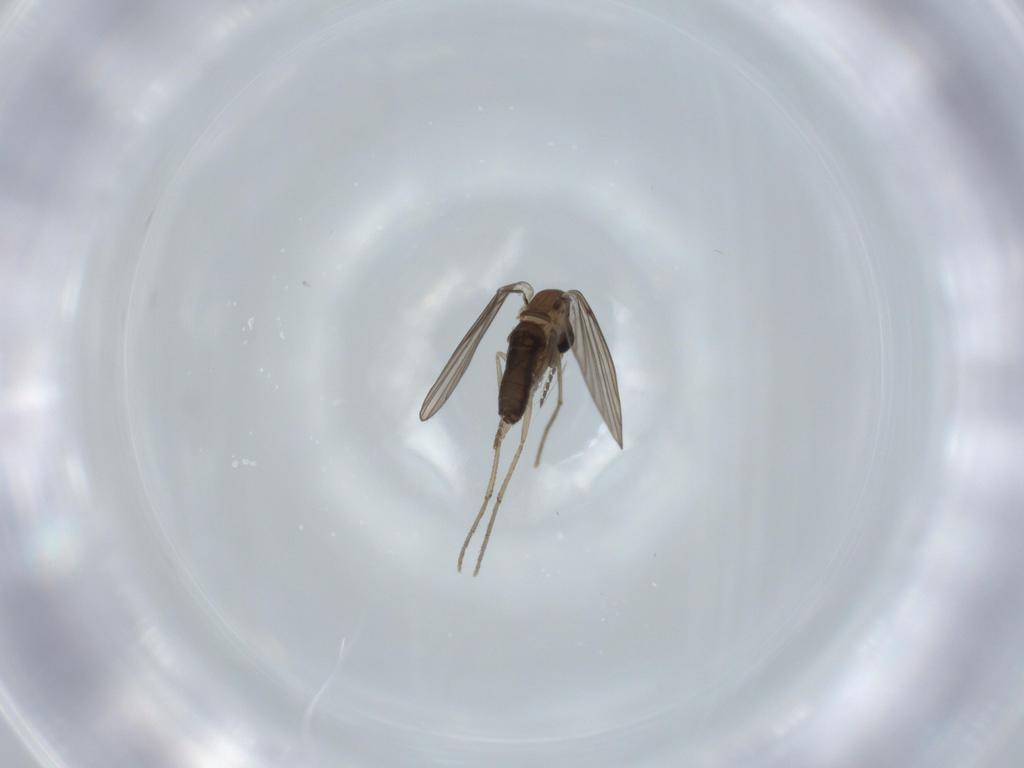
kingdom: Animalia
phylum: Arthropoda
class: Insecta
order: Diptera
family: Psychodidae
